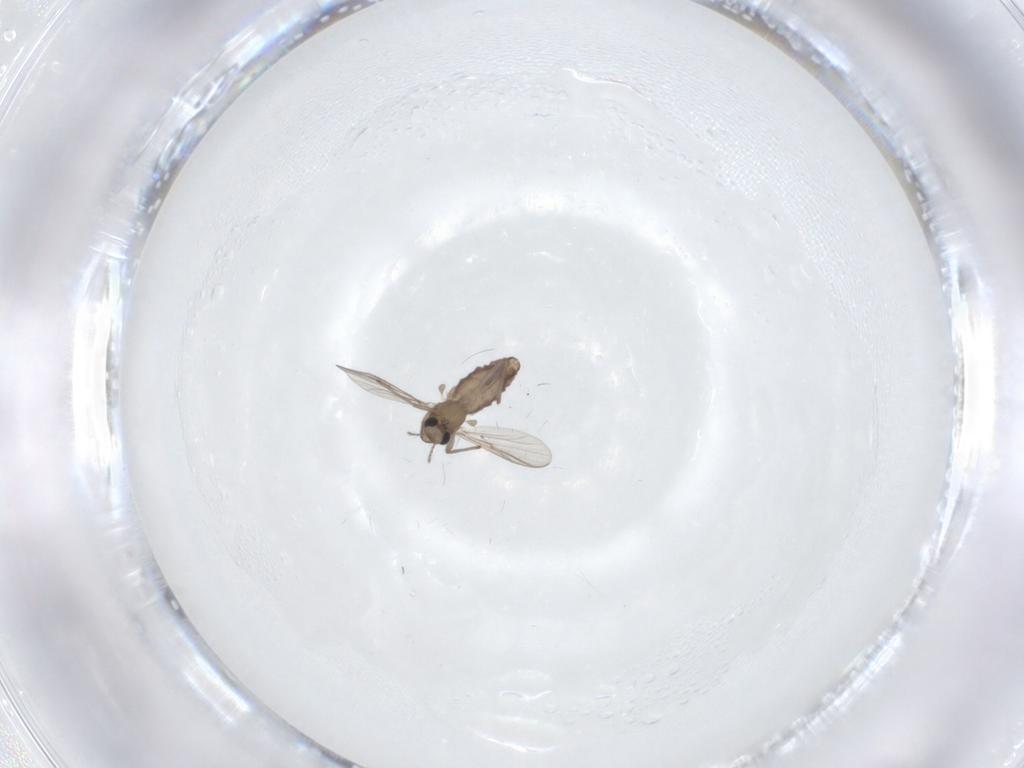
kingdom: Animalia
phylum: Arthropoda
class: Insecta
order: Diptera
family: Chironomidae
